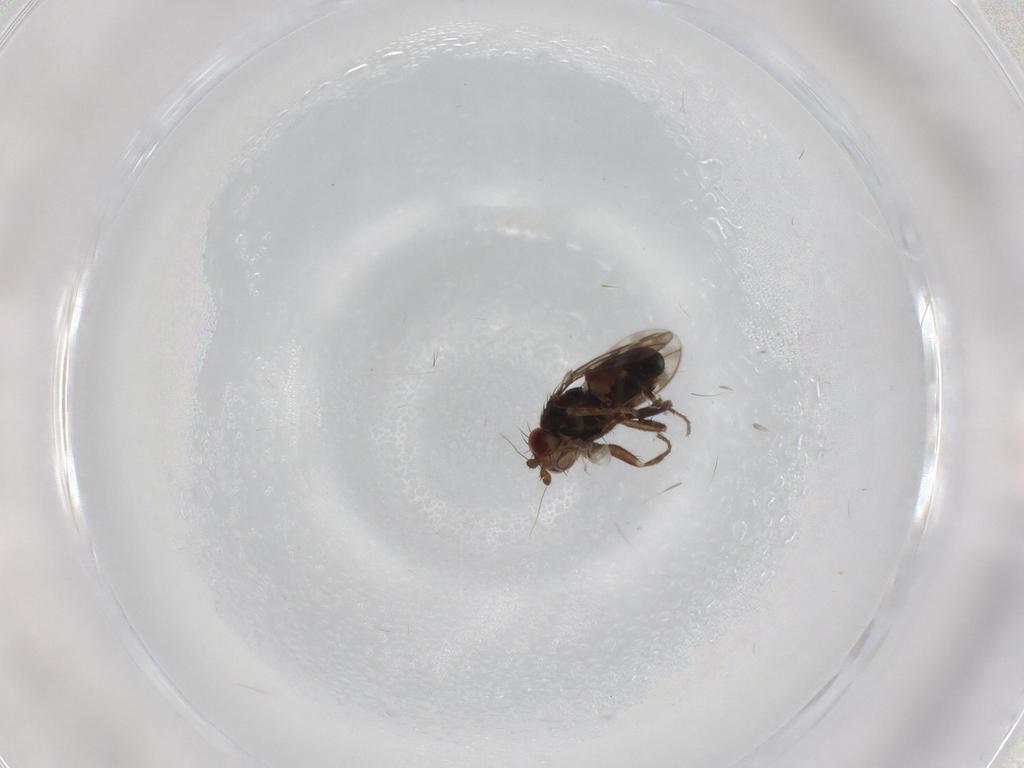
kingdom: Animalia
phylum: Arthropoda
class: Insecta
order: Diptera
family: Sphaeroceridae
